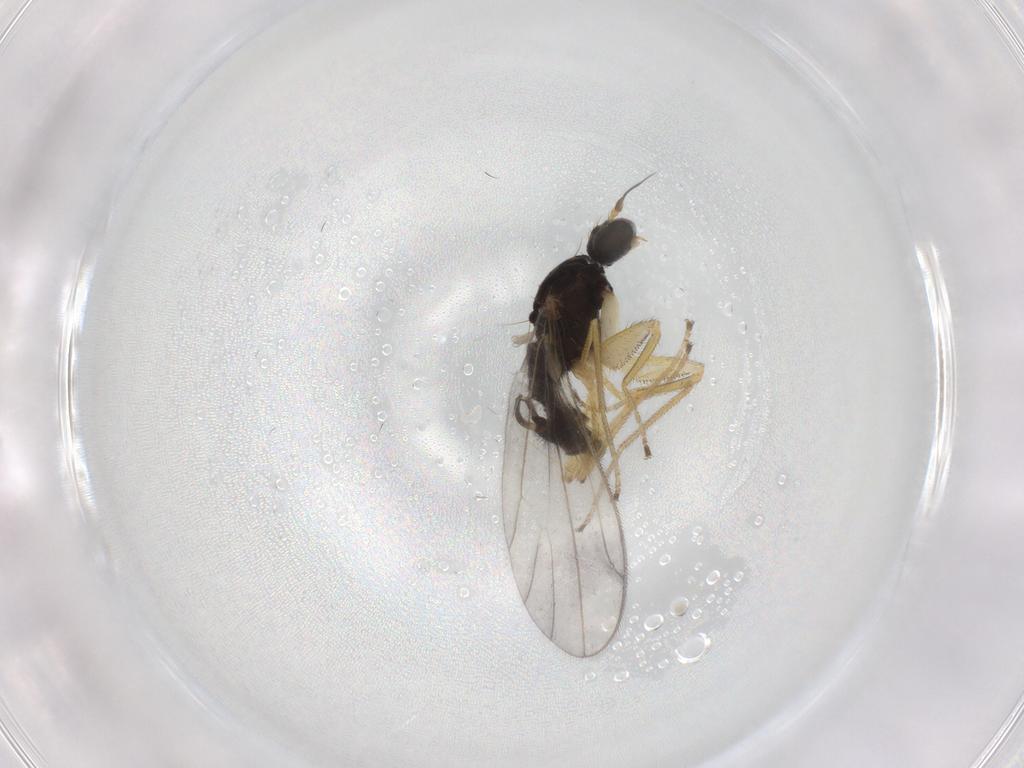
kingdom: Animalia
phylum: Arthropoda
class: Insecta
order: Diptera
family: Empididae
